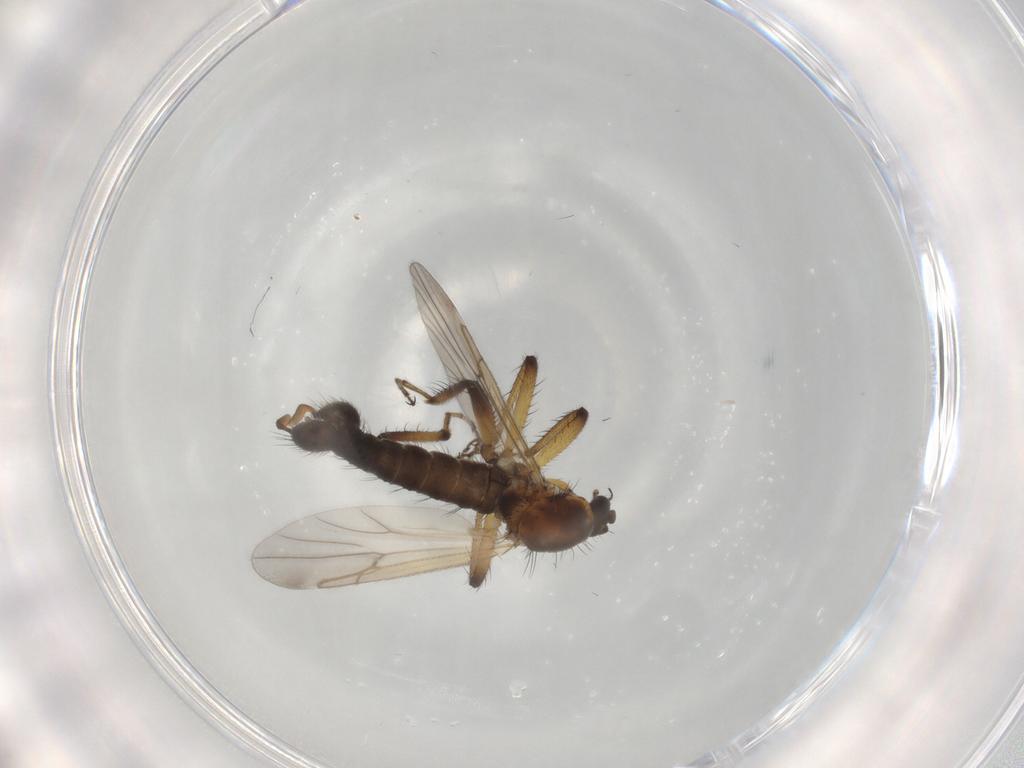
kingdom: Animalia
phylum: Arthropoda
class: Insecta
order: Diptera
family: Ceratopogonidae
